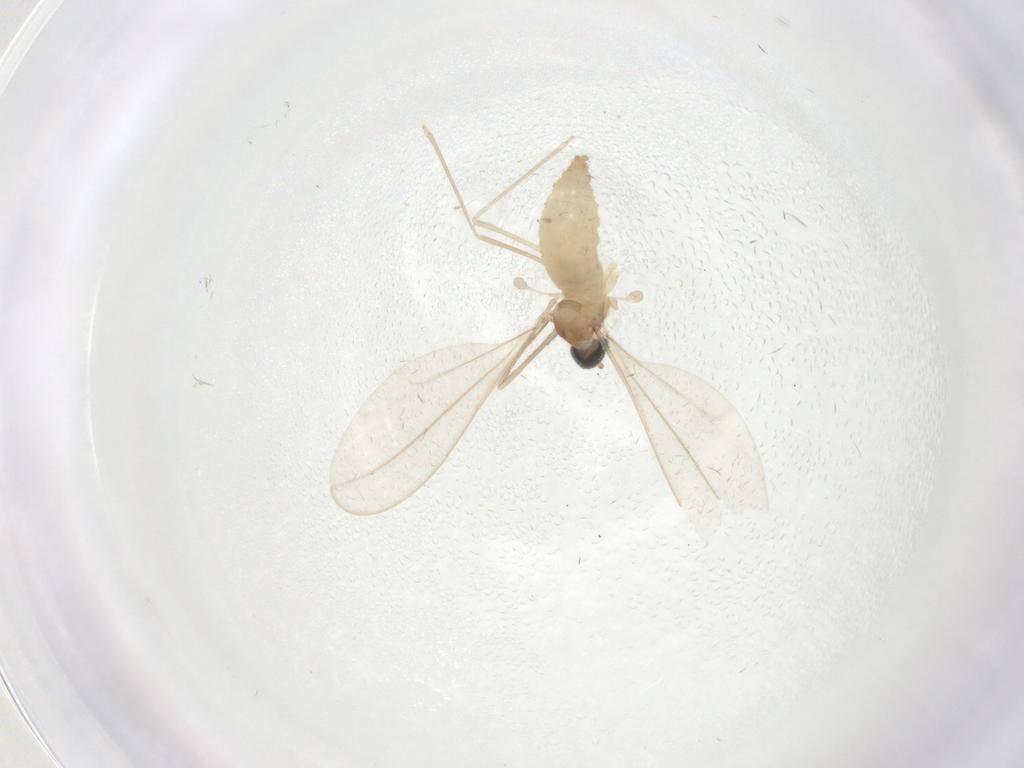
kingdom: Animalia
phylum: Arthropoda
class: Insecta
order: Diptera
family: Cecidomyiidae
